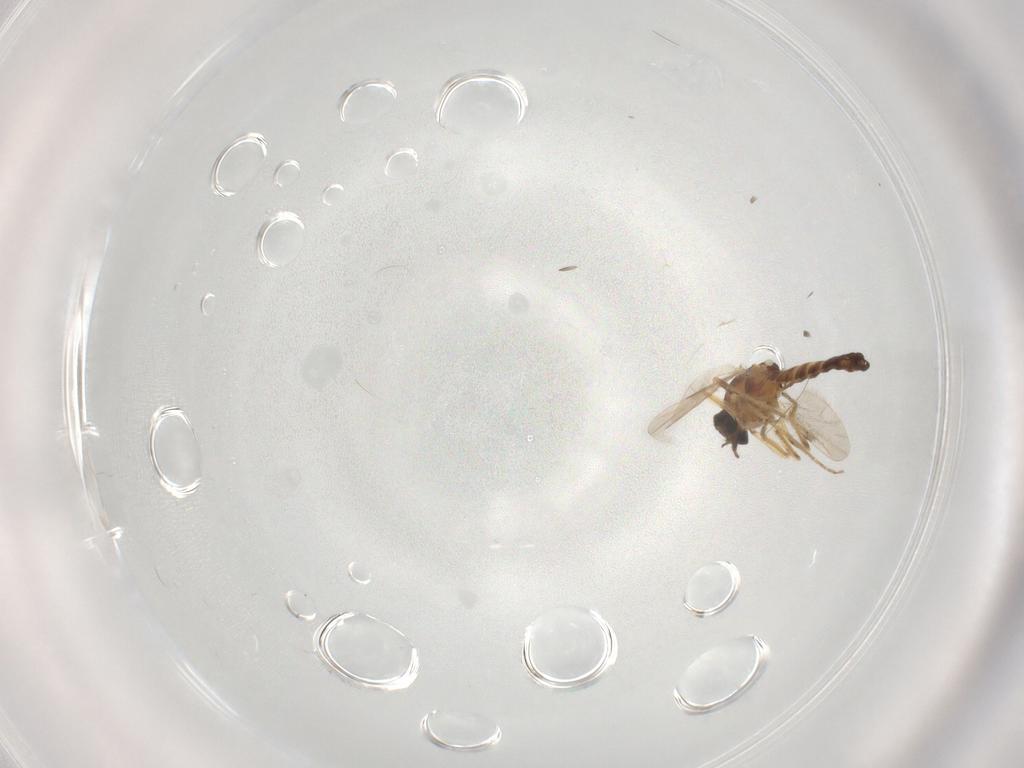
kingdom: Animalia
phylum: Arthropoda
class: Insecta
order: Diptera
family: Ceratopogonidae
